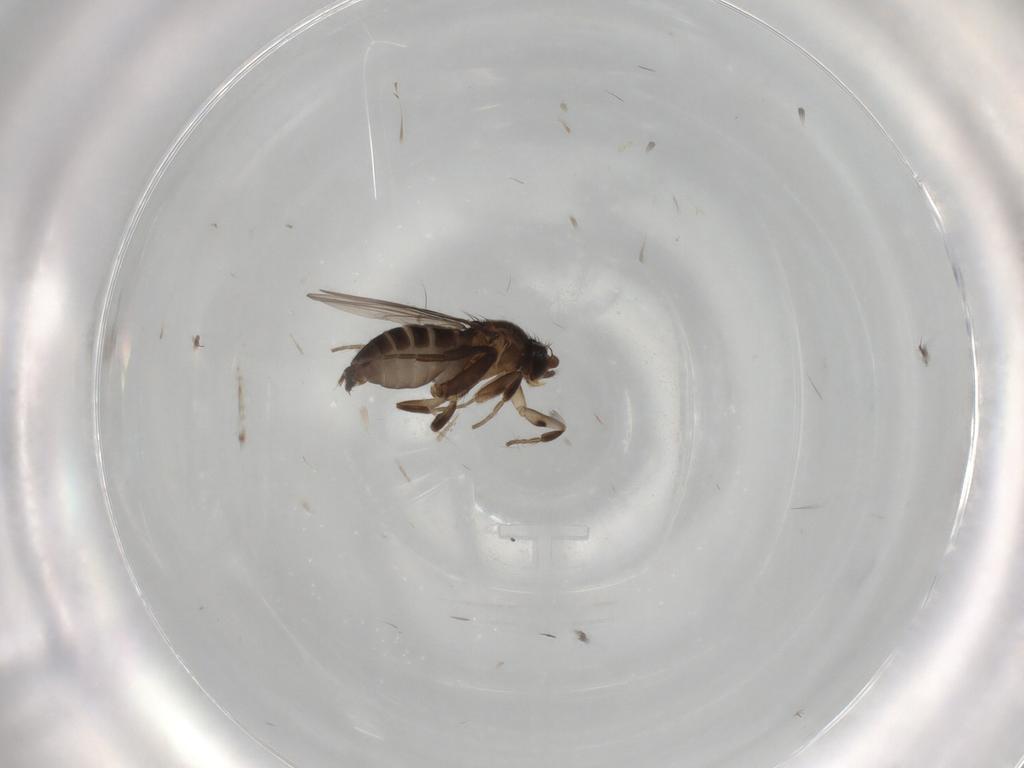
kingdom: Animalia
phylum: Arthropoda
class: Insecta
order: Diptera
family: Phoridae
